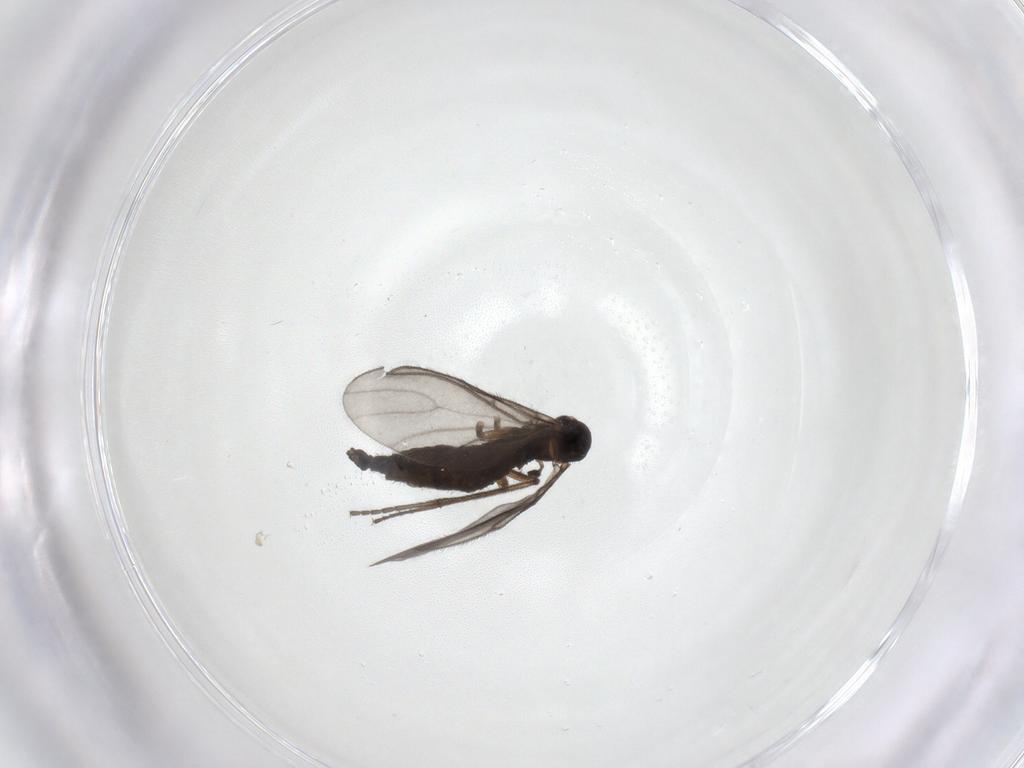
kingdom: Animalia
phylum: Arthropoda
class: Insecta
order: Diptera
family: Sciaridae
